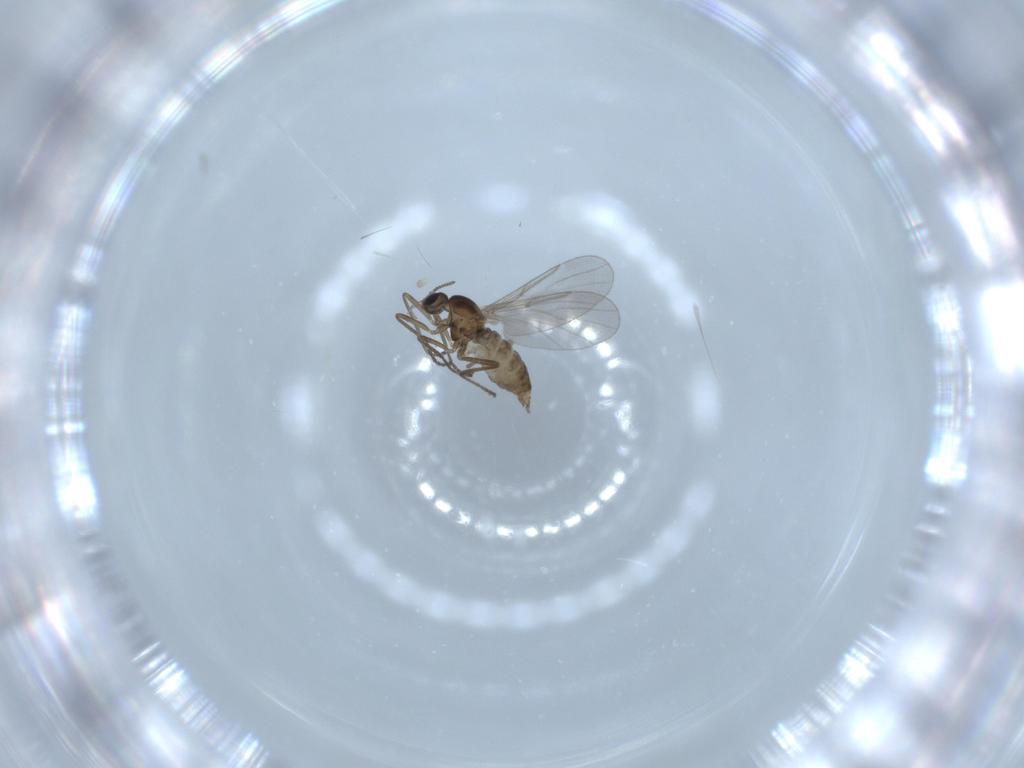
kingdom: Animalia
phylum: Arthropoda
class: Insecta
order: Diptera
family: Cecidomyiidae
